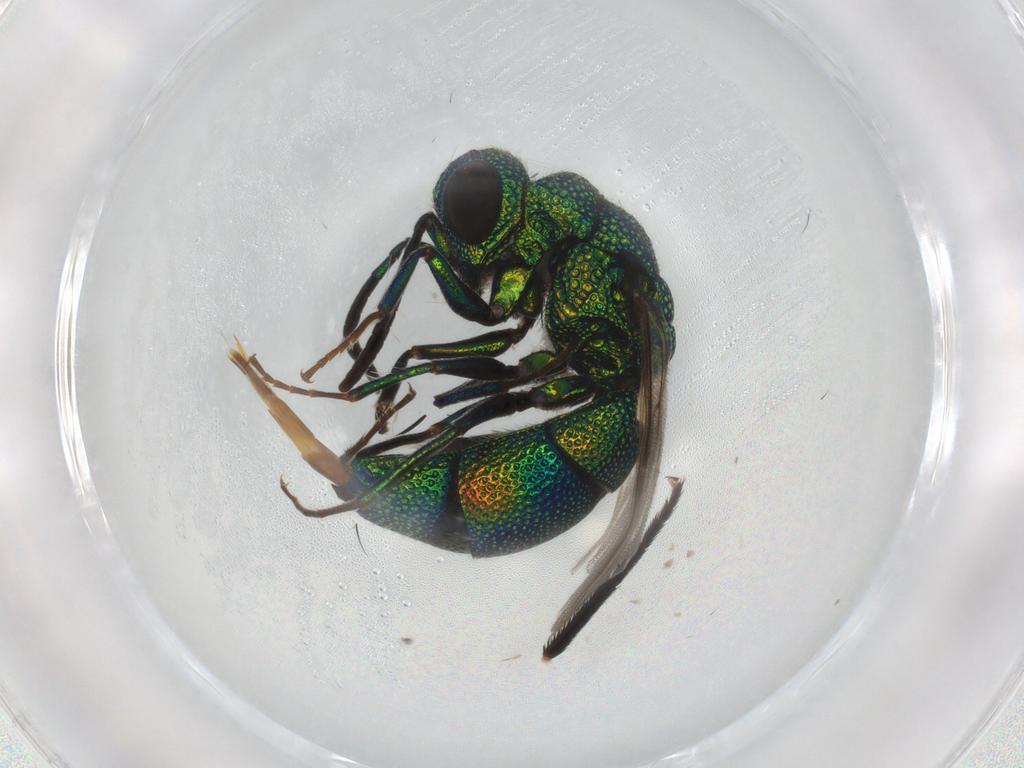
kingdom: Animalia
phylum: Arthropoda
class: Insecta
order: Hymenoptera
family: Chrysididae
